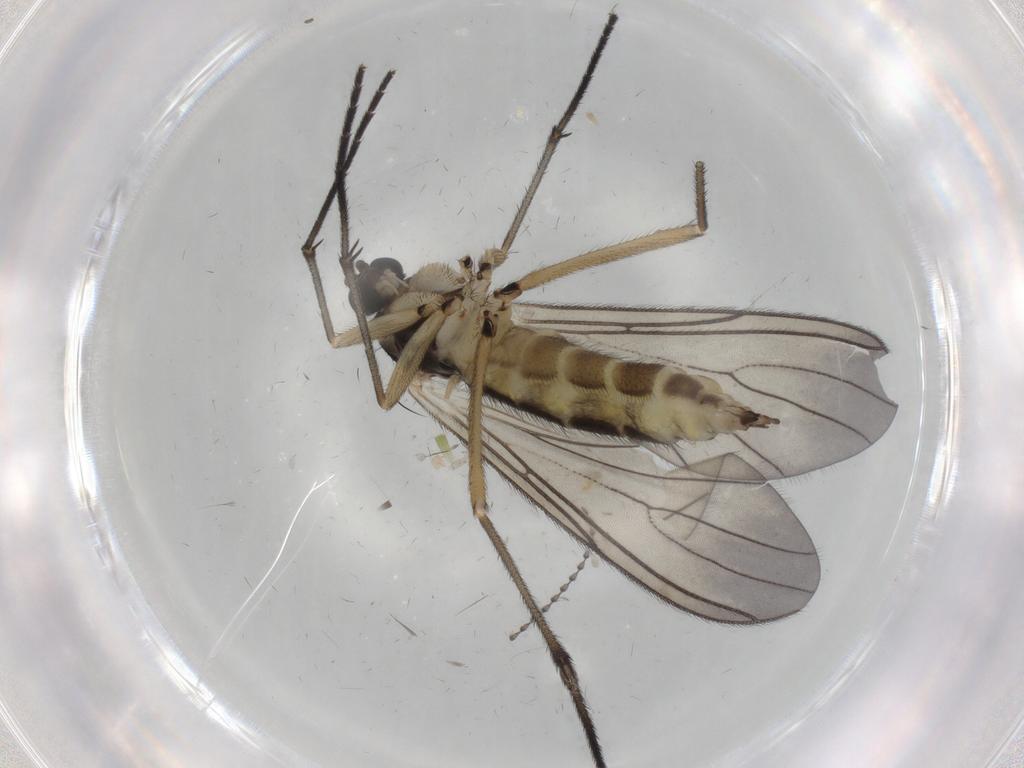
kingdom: Animalia
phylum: Arthropoda
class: Insecta
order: Diptera
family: Sciaridae
